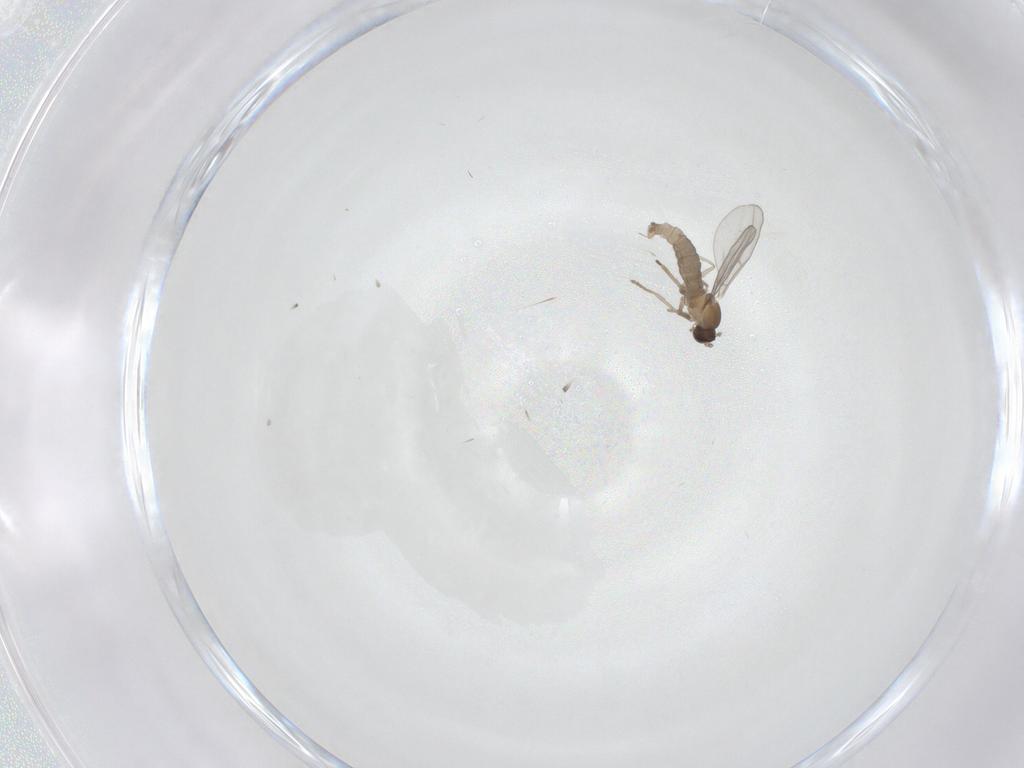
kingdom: Animalia
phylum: Arthropoda
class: Insecta
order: Diptera
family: Cecidomyiidae
